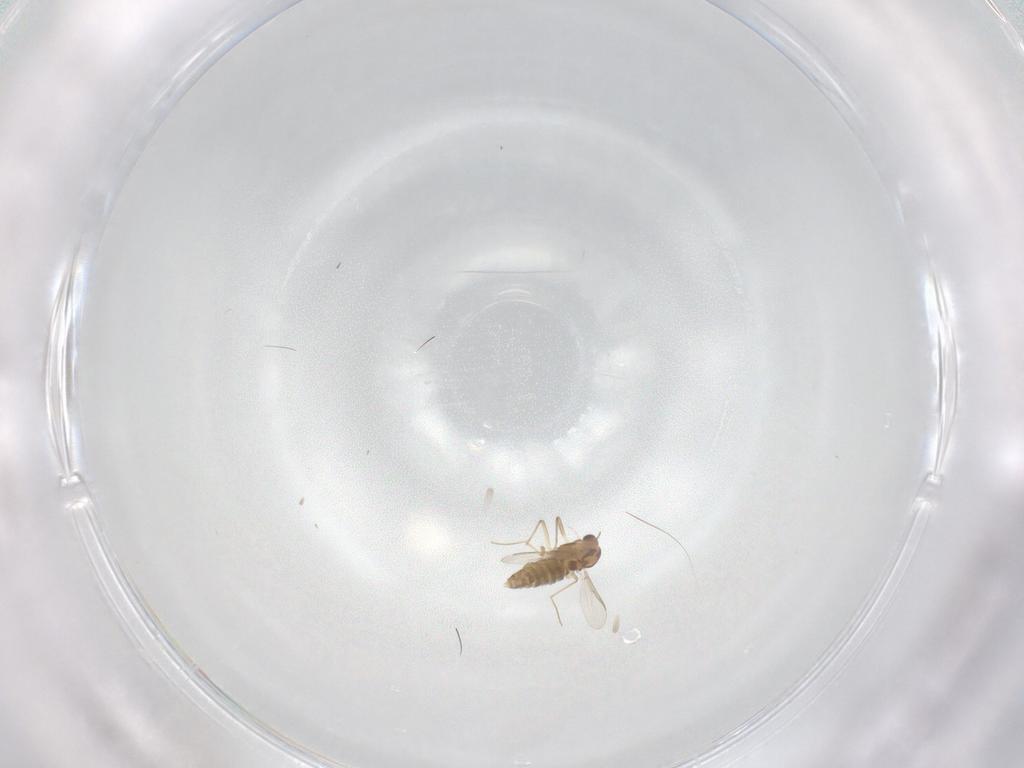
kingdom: Animalia
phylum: Arthropoda
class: Insecta
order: Diptera
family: Chironomidae
